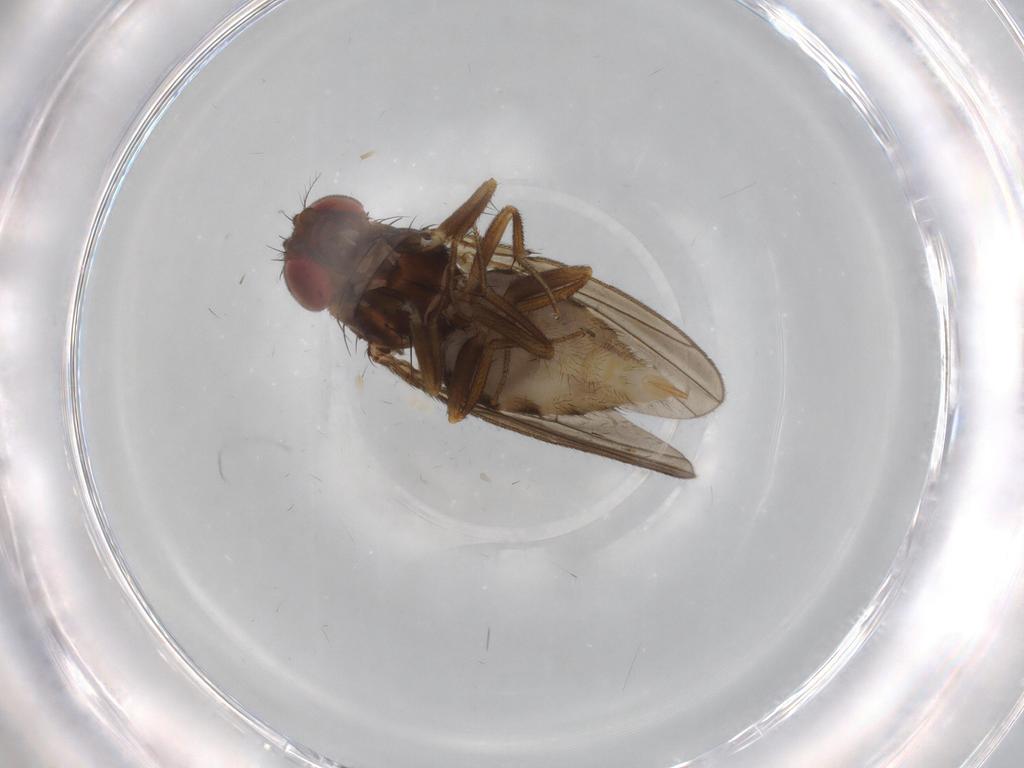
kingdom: Animalia
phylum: Arthropoda
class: Insecta
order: Diptera
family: Drosophilidae
